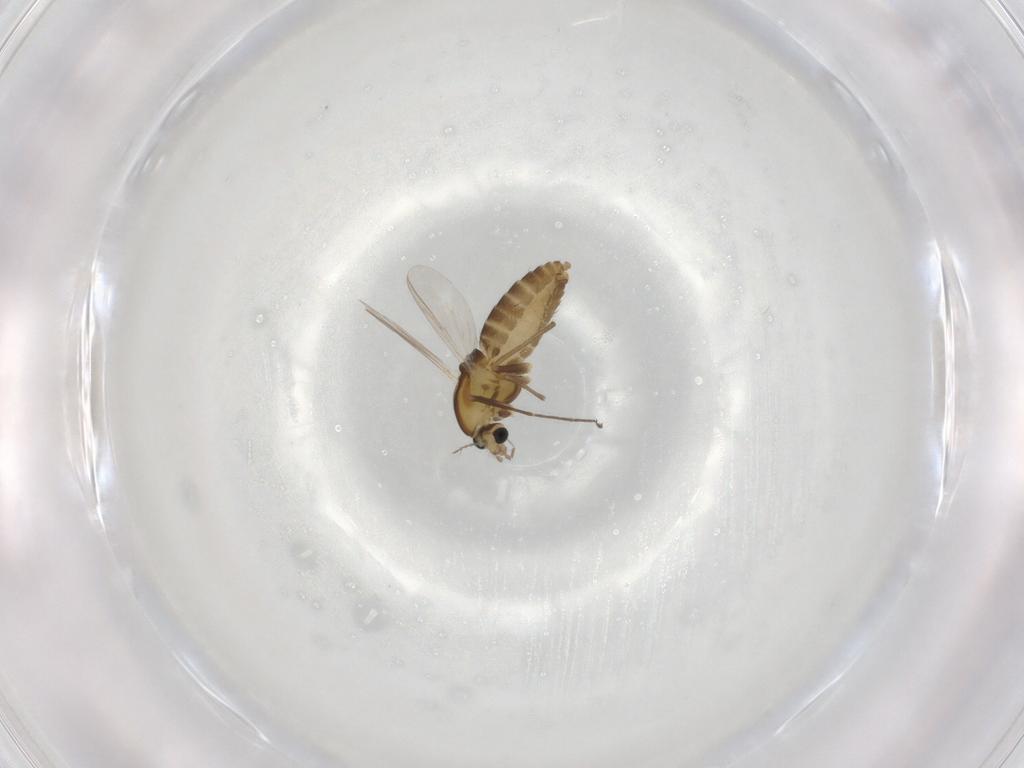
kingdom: Animalia
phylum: Arthropoda
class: Insecta
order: Diptera
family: Chironomidae
